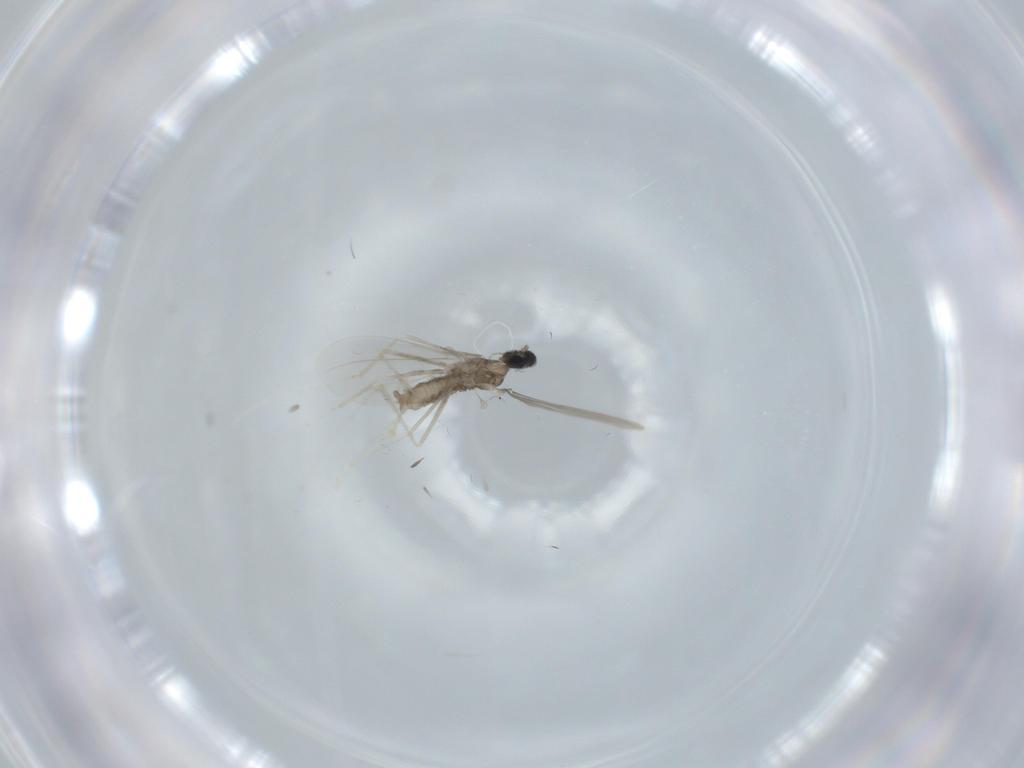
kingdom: Animalia
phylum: Arthropoda
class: Insecta
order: Diptera
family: Cecidomyiidae
